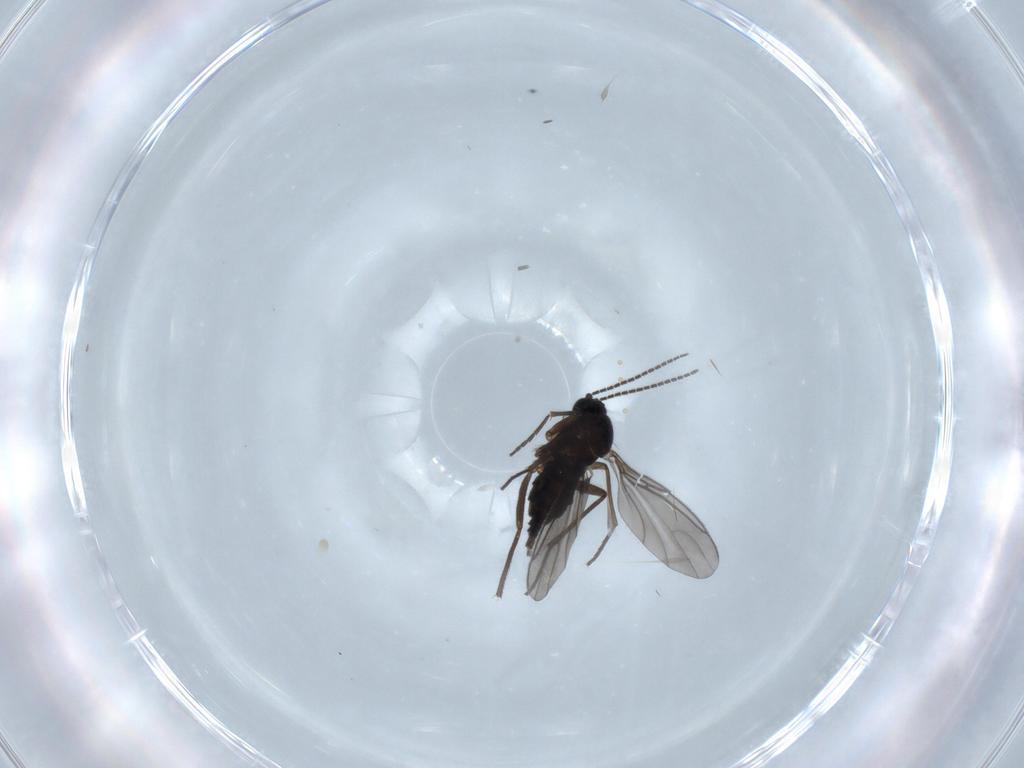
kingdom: Animalia
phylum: Arthropoda
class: Insecta
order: Diptera
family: Sciaridae
